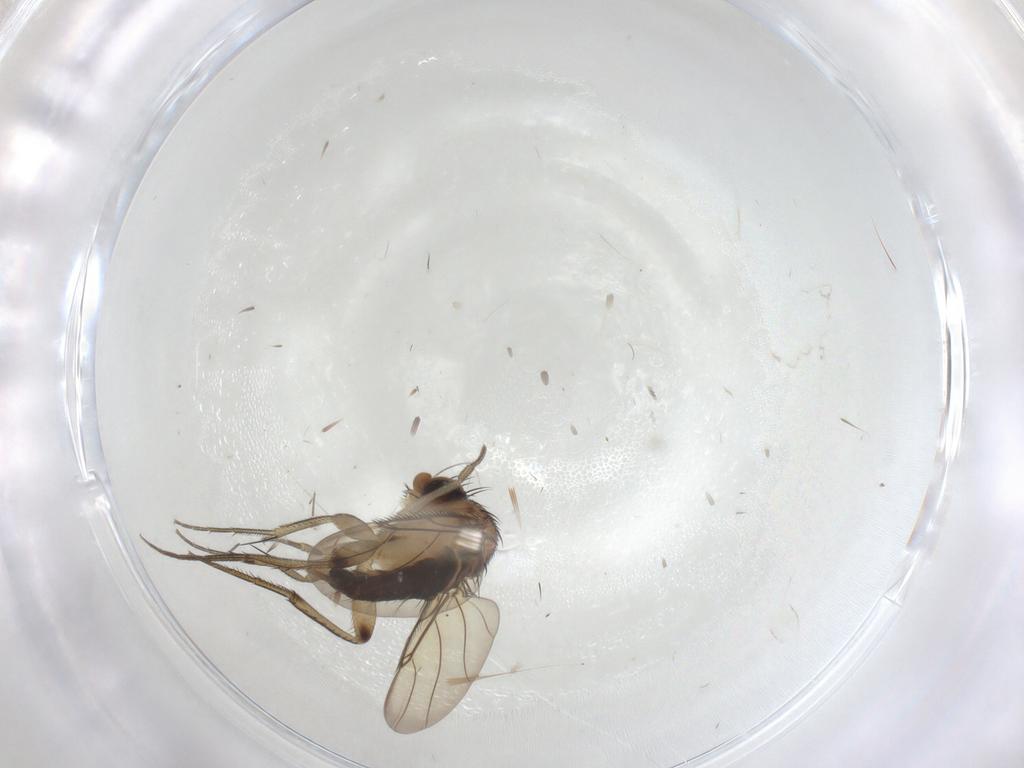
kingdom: Animalia
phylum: Arthropoda
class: Insecta
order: Diptera
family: Phoridae
